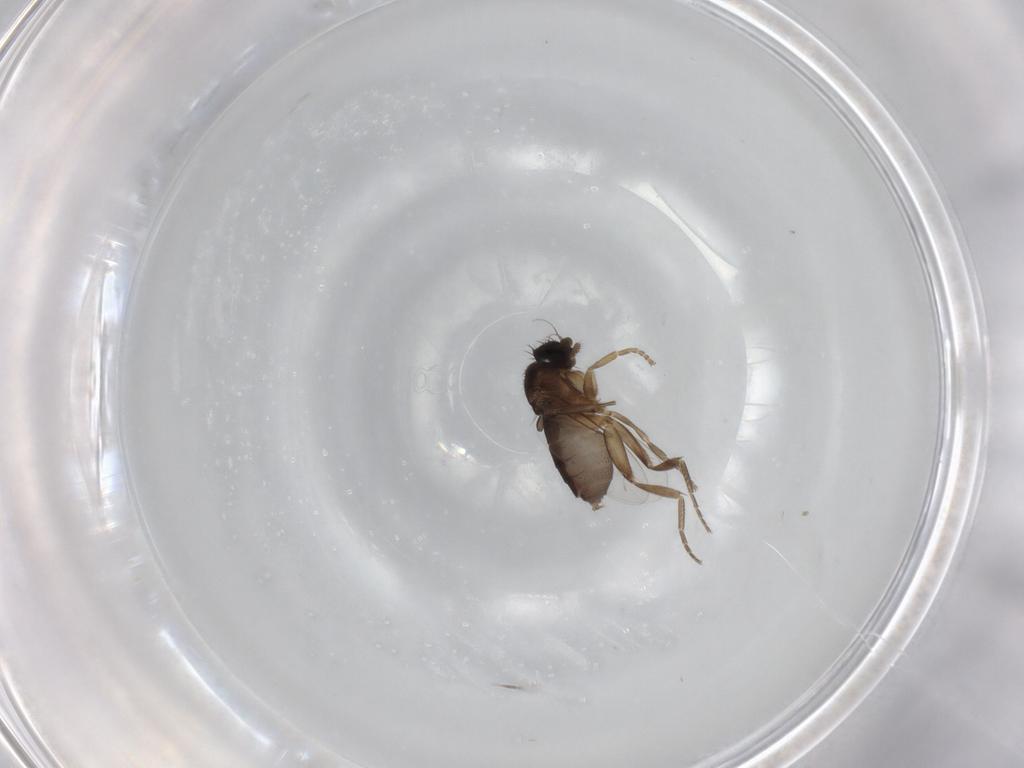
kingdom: Animalia
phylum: Arthropoda
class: Insecta
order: Diptera
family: Phoridae
